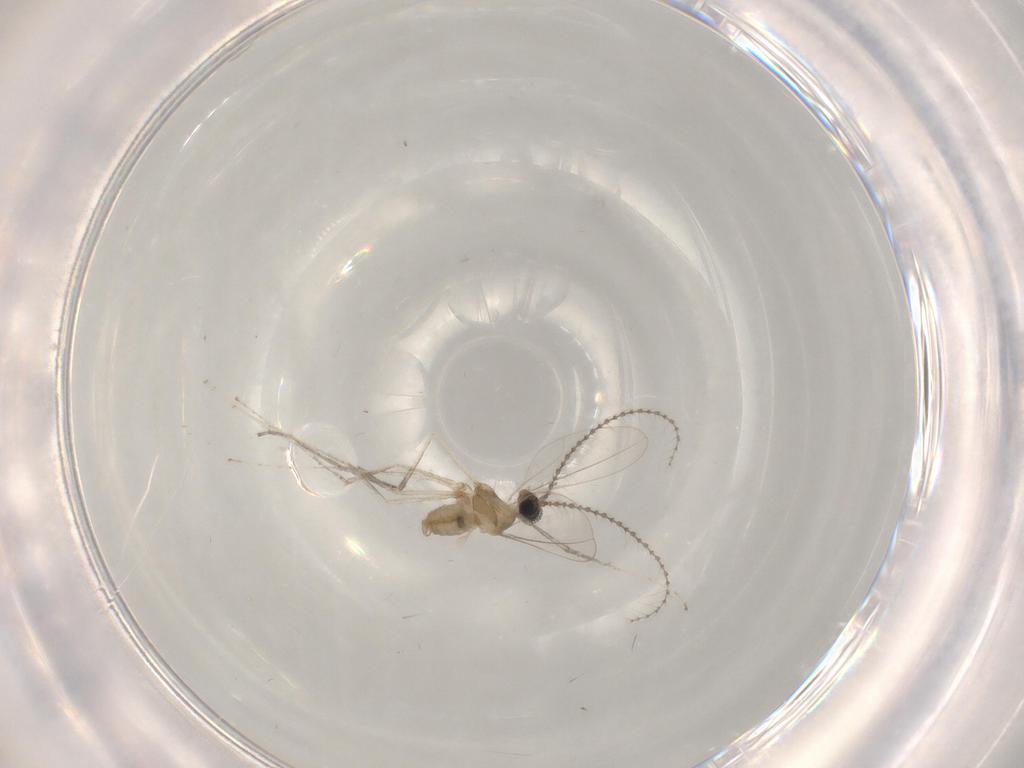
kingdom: Animalia
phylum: Arthropoda
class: Insecta
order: Diptera
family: Cecidomyiidae
